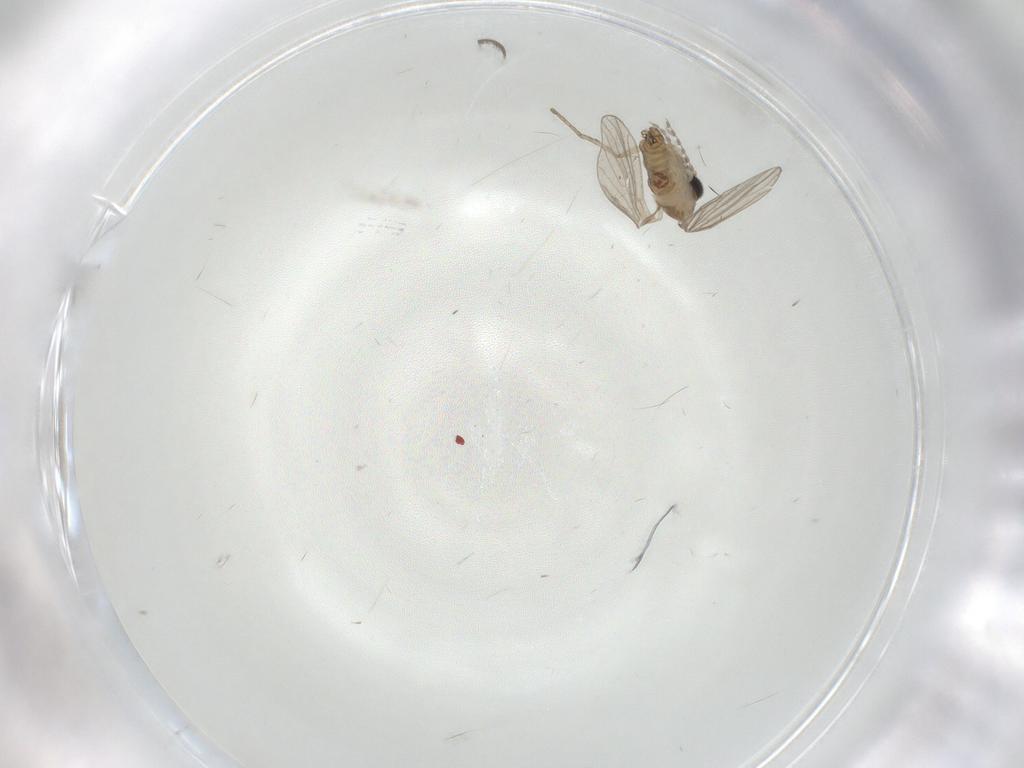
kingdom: Animalia
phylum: Arthropoda
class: Insecta
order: Diptera
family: Ceratopogonidae
